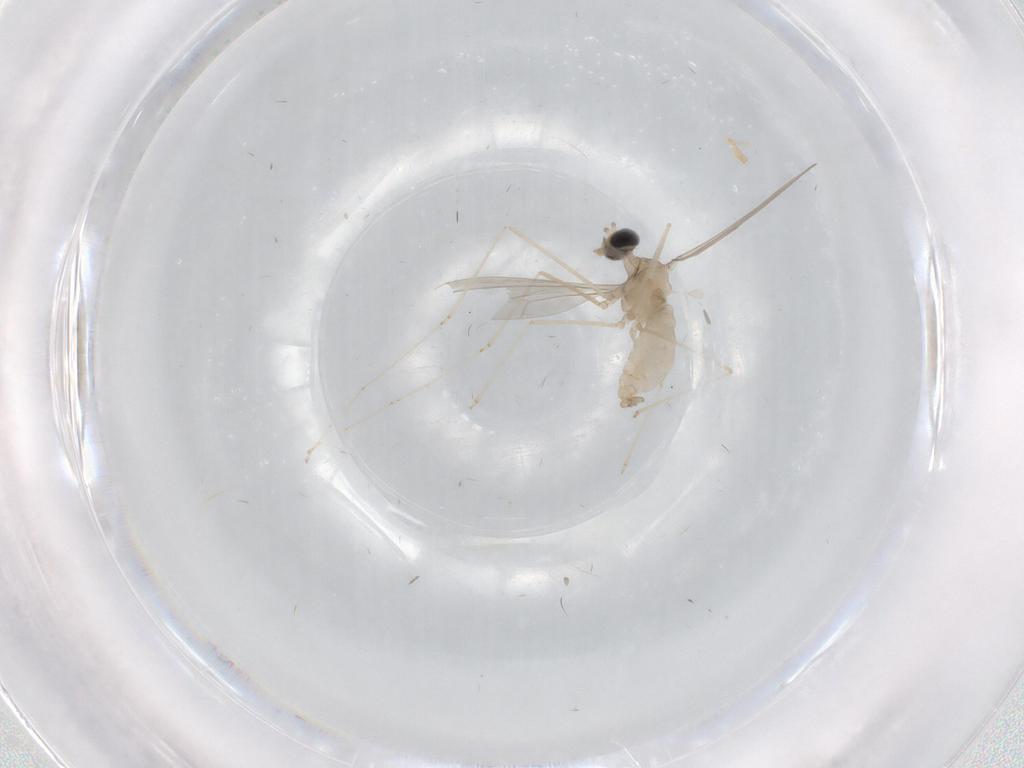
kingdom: Animalia
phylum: Arthropoda
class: Insecta
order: Diptera
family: Cecidomyiidae
